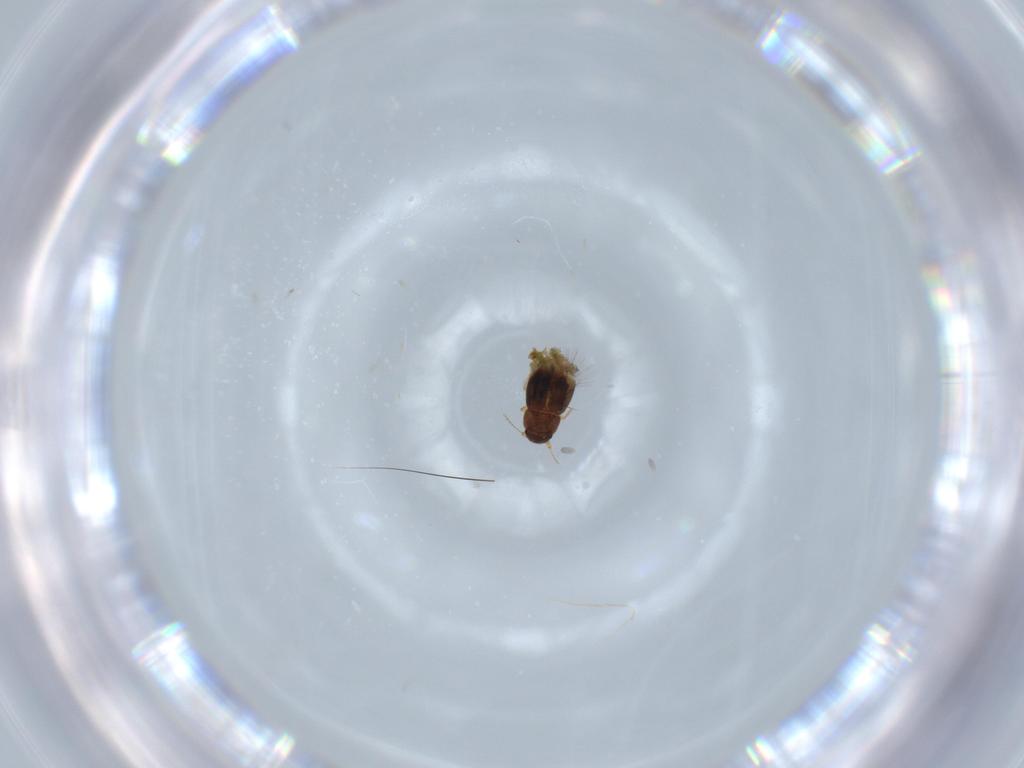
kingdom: Animalia
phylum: Arthropoda
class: Insecta
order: Coleoptera
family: Ptiliidae
